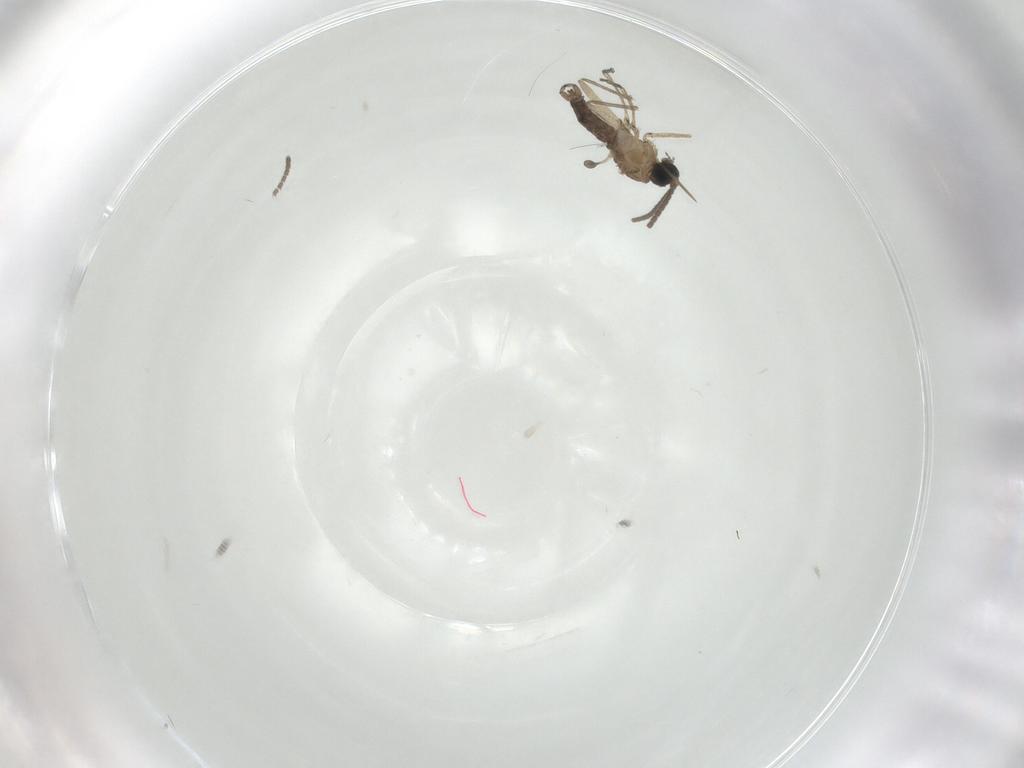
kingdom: Animalia
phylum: Arthropoda
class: Insecta
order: Diptera
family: Sciaridae
